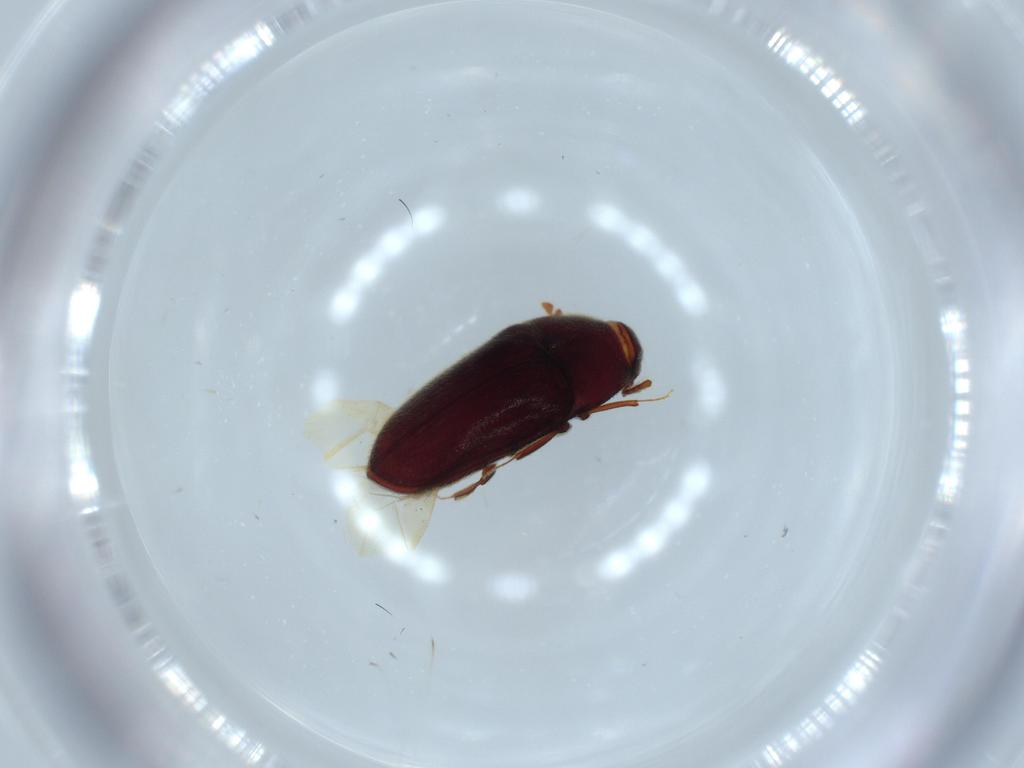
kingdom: Animalia
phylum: Arthropoda
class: Insecta
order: Coleoptera
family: Throscidae
